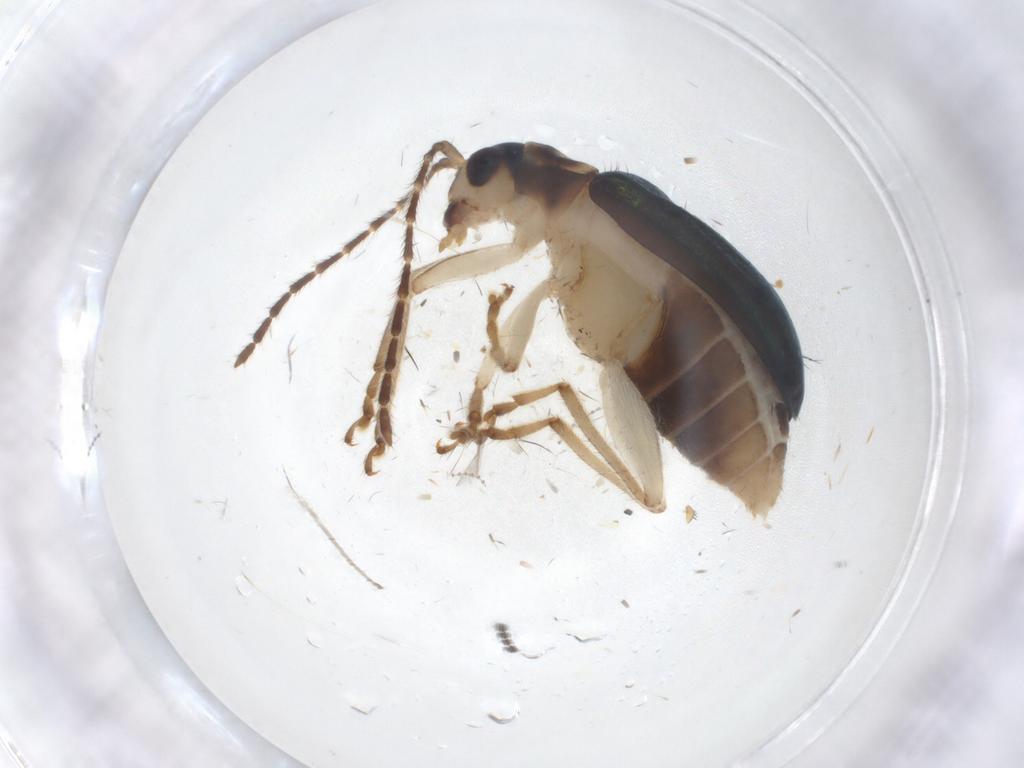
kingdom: Animalia
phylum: Arthropoda
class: Insecta
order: Coleoptera
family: Chrysomelidae
